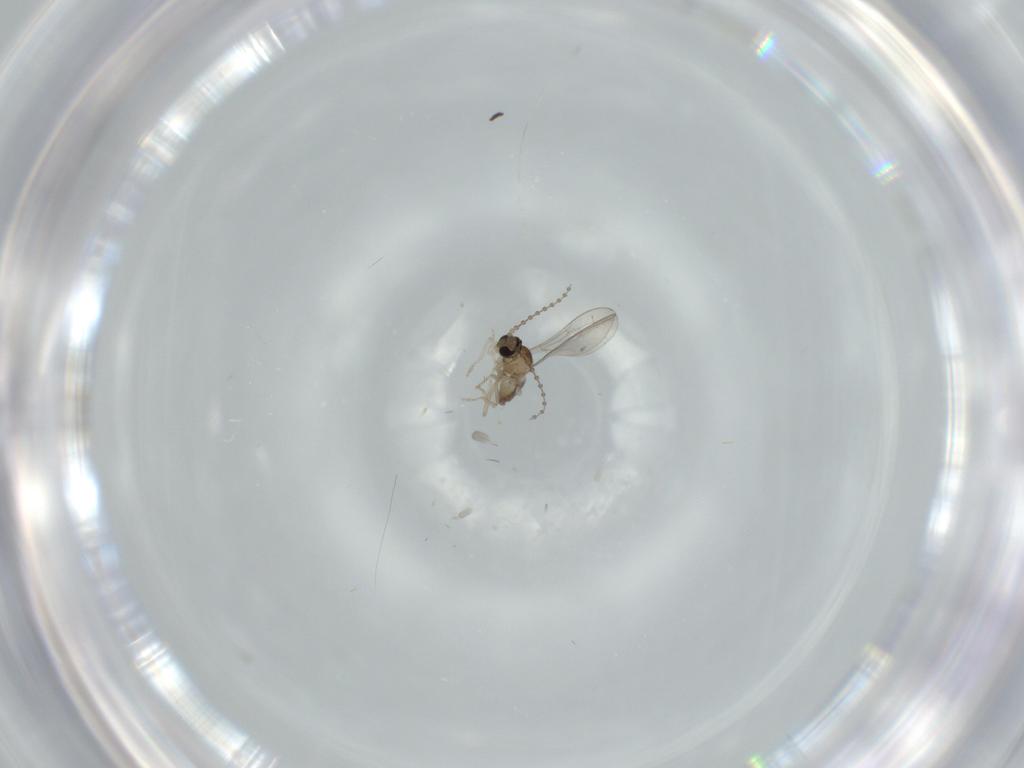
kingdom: Animalia
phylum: Arthropoda
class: Insecta
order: Diptera
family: Cecidomyiidae
